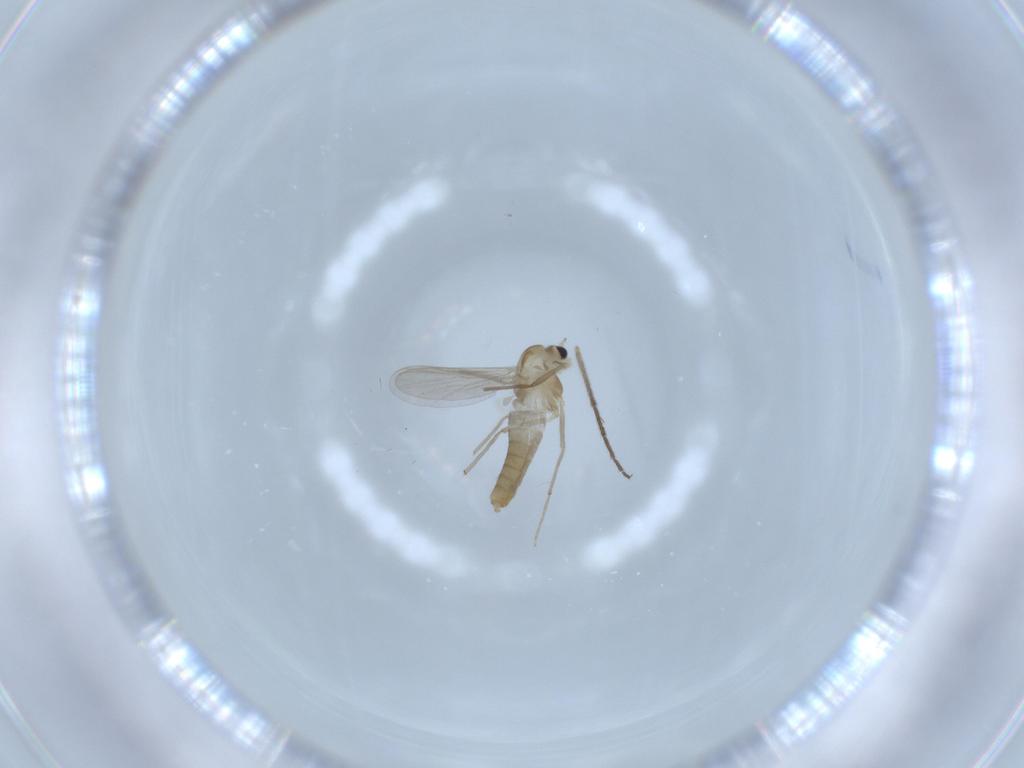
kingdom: Animalia
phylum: Arthropoda
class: Insecta
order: Diptera
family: Chironomidae
